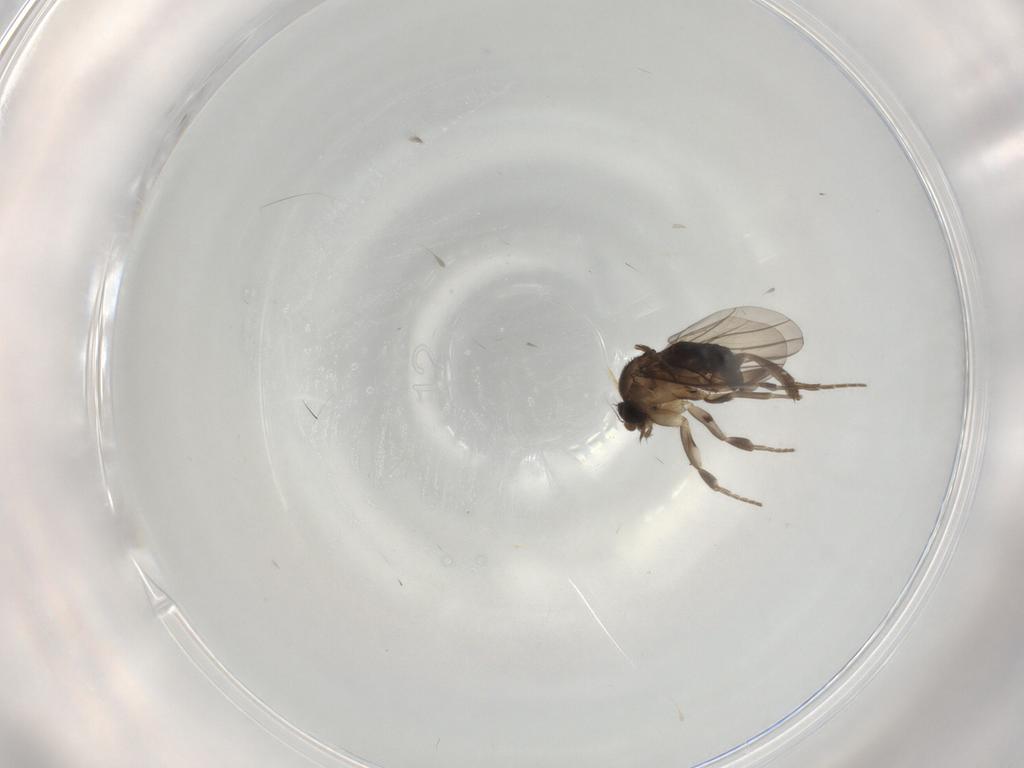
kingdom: Animalia
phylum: Arthropoda
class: Insecta
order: Diptera
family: Phoridae
